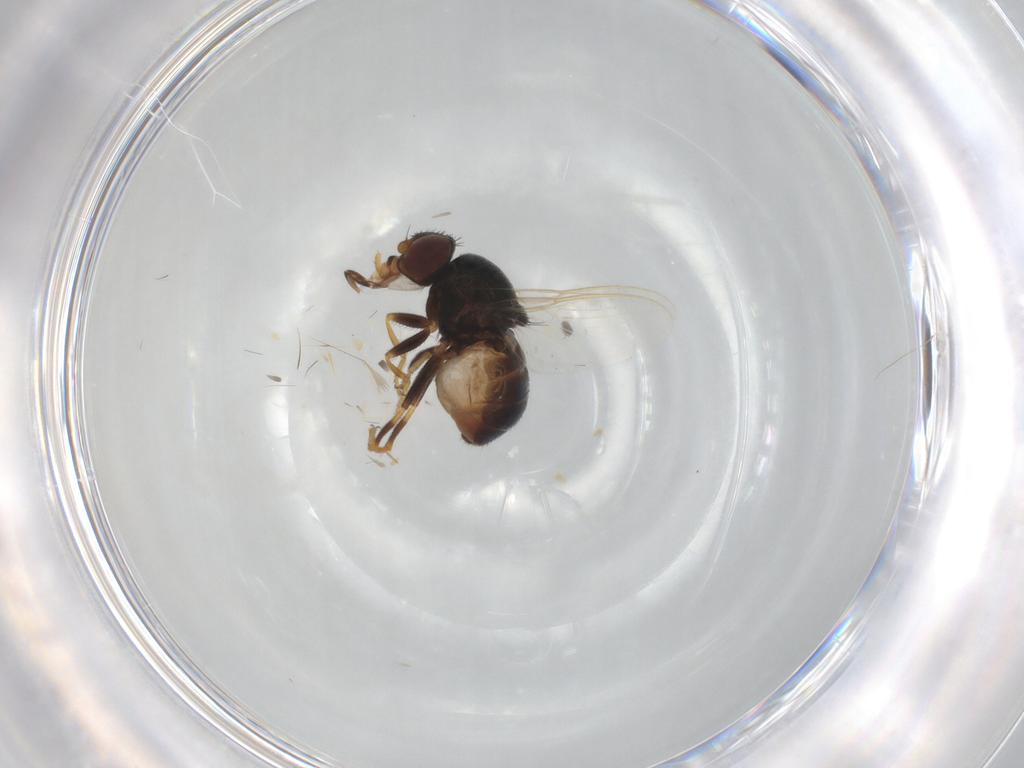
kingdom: Animalia
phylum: Arthropoda
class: Insecta
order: Diptera
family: Chloropidae
